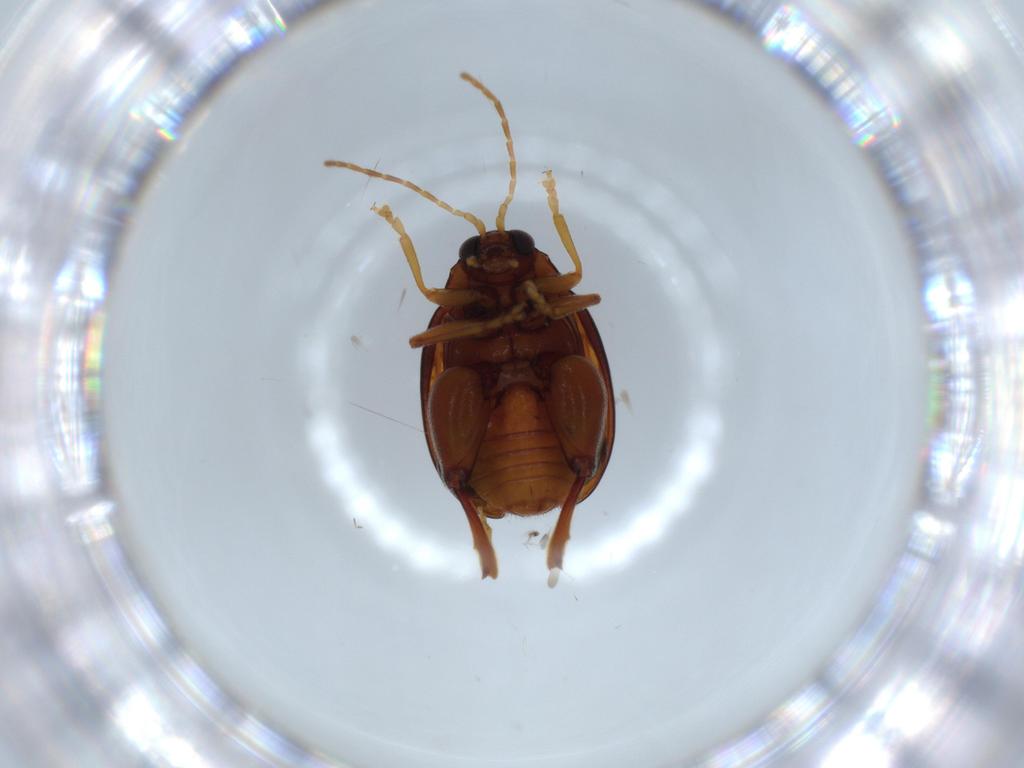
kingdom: Animalia
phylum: Arthropoda
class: Insecta
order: Coleoptera
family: Chrysomelidae
